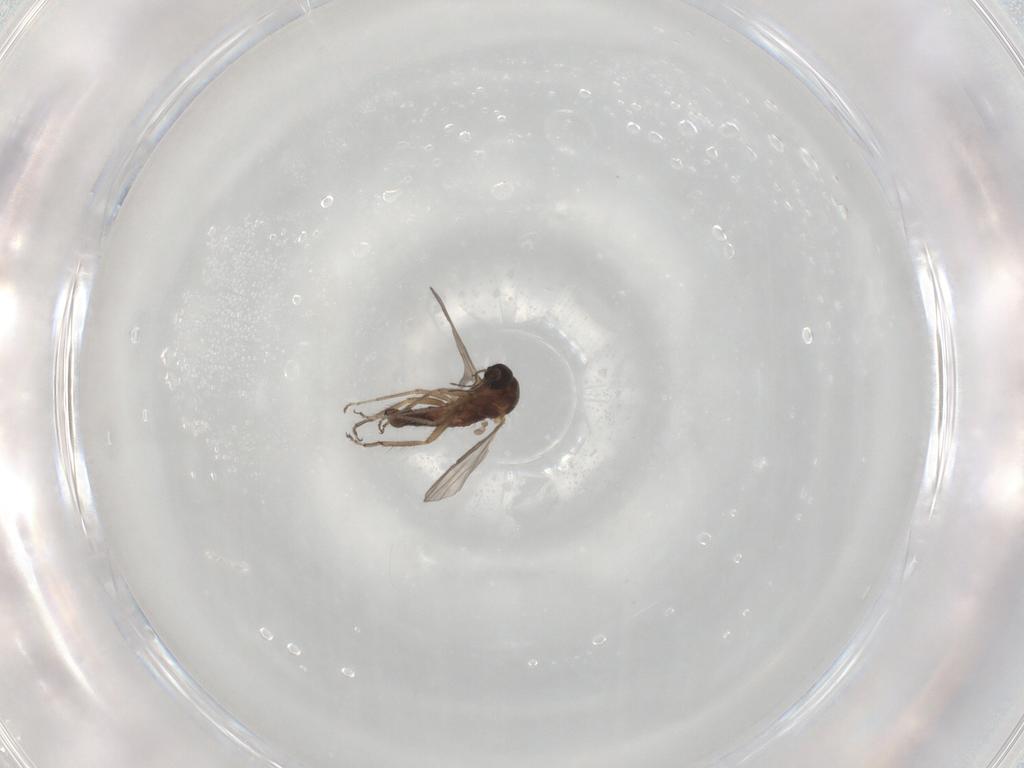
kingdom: Animalia
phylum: Arthropoda
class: Insecta
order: Diptera
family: Ceratopogonidae
